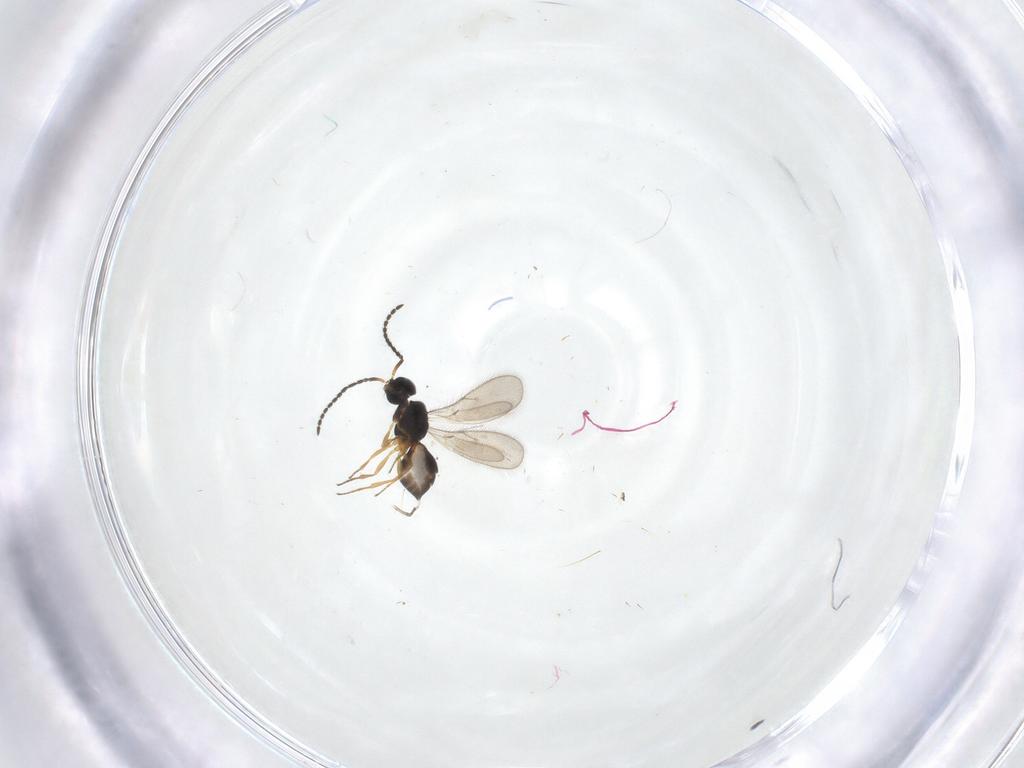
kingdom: Animalia
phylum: Arthropoda
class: Insecta
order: Hymenoptera
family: Scelionidae
